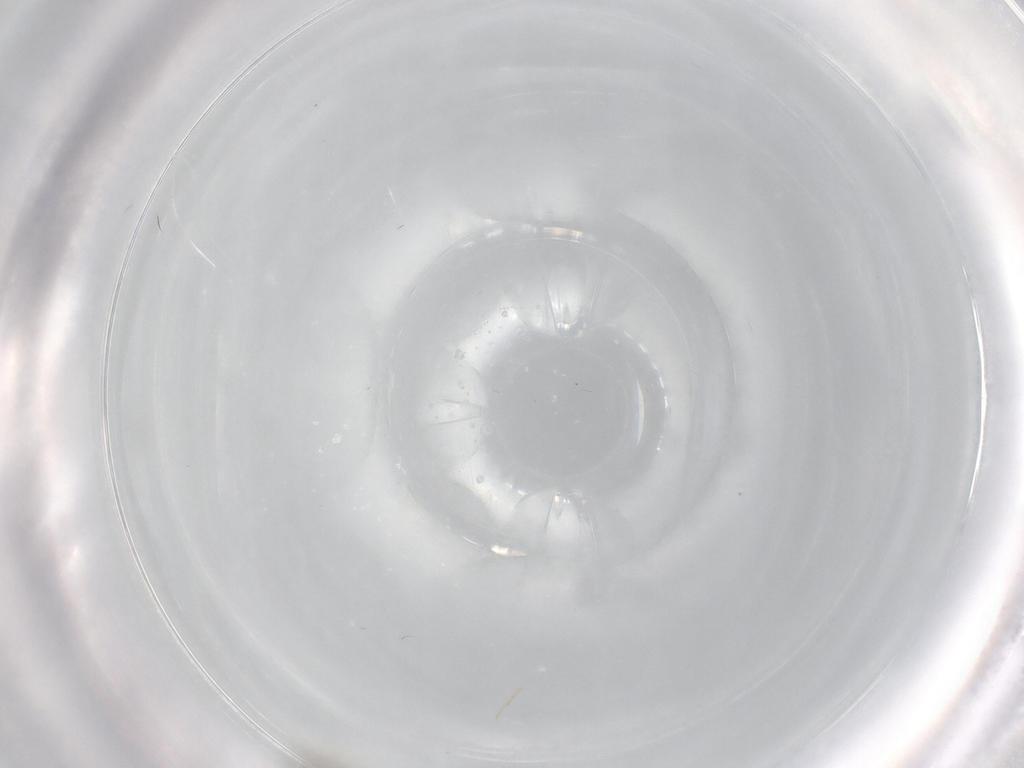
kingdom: Animalia
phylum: Arthropoda
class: Insecta
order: Diptera
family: Cecidomyiidae
